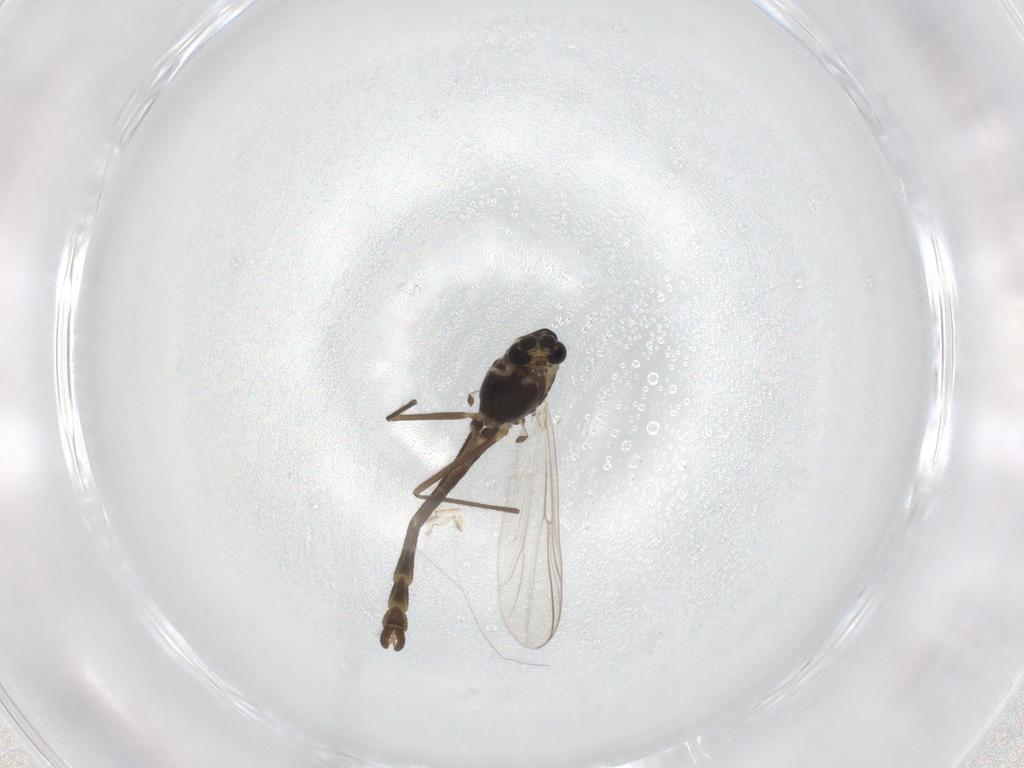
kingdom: Animalia
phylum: Arthropoda
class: Insecta
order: Diptera
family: Chironomidae
